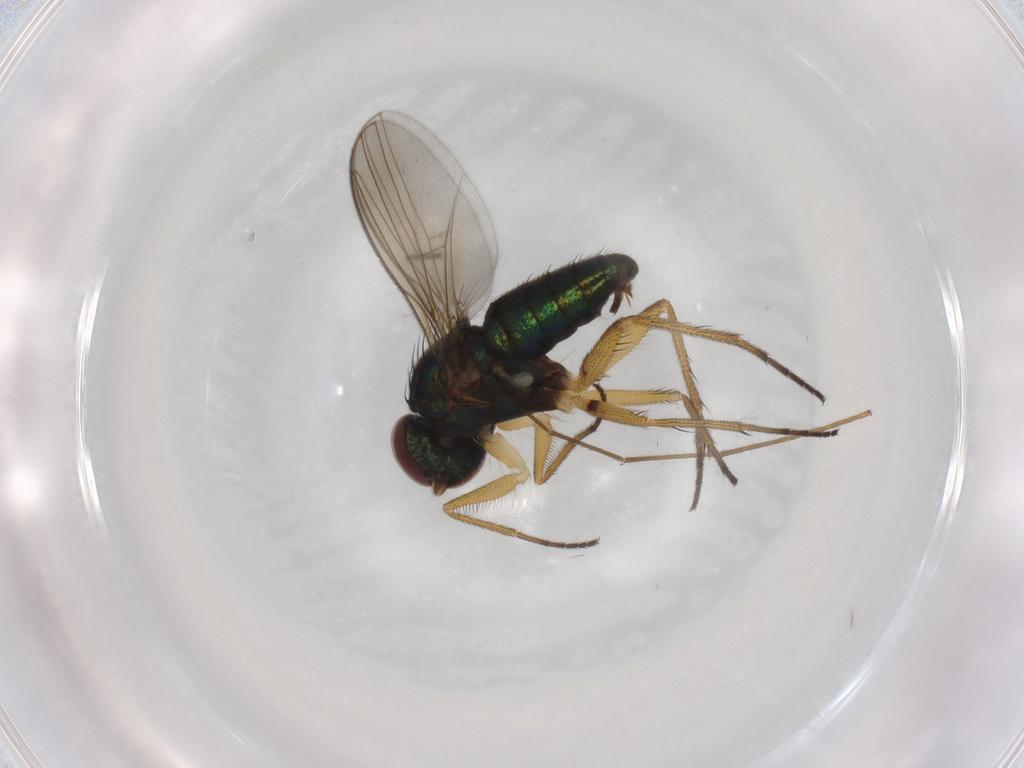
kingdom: Animalia
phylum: Arthropoda
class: Insecta
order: Diptera
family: Dolichopodidae
